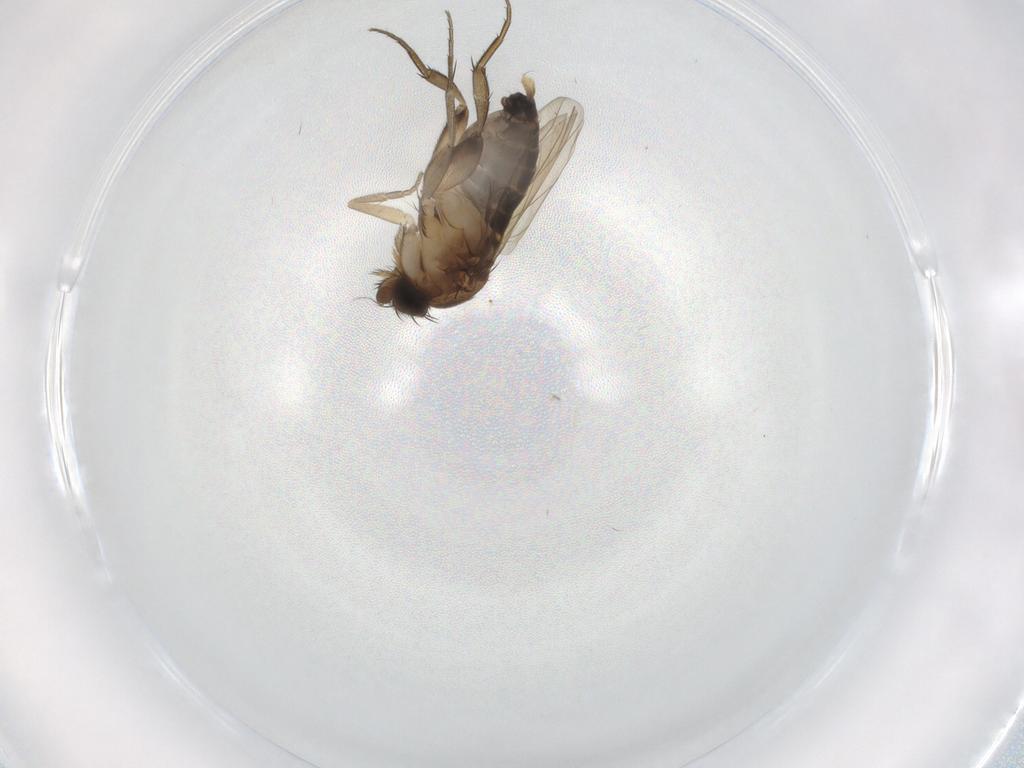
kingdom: Animalia
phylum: Arthropoda
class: Insecta
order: Diptera
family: Phoridae
